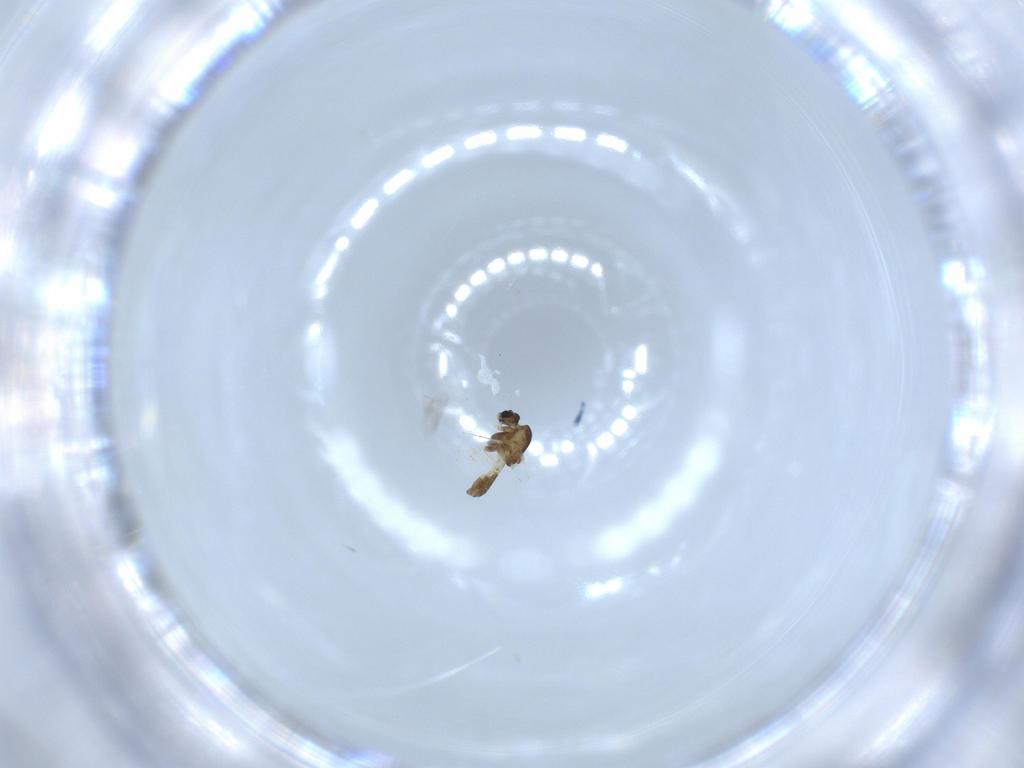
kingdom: Animalia
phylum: Arthropoda
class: Insecta
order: Diptera
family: Chironomidae
